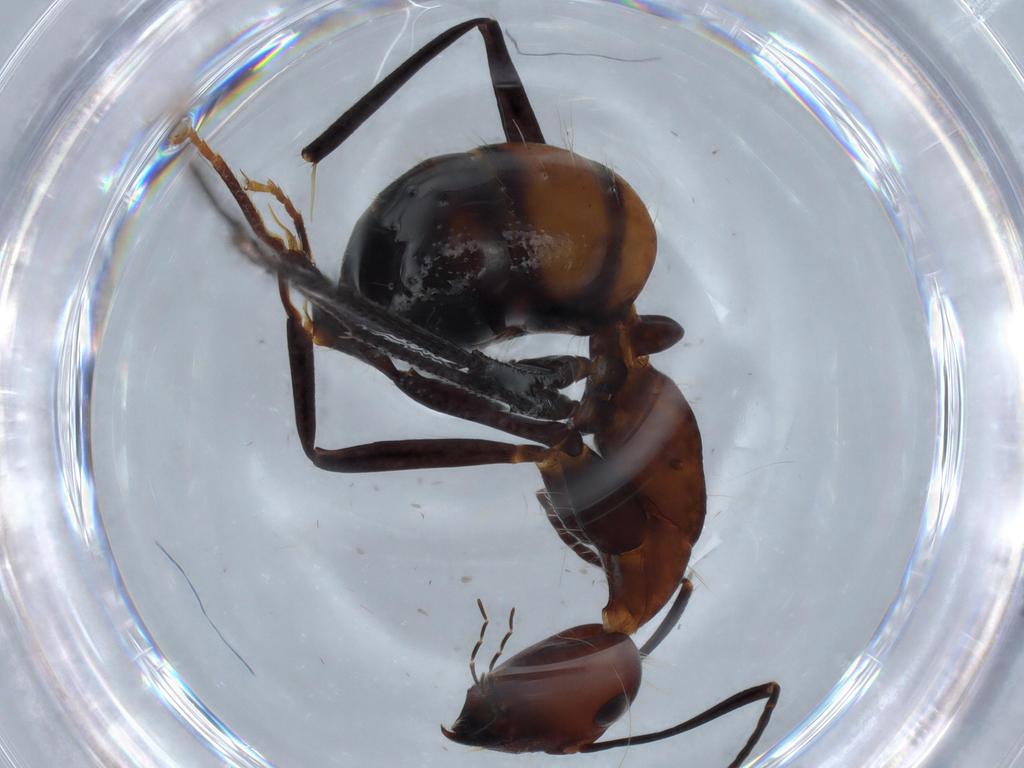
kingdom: Animalia
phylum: Arthropoda
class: Insecta
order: Hymenoptera
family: Formicidae
